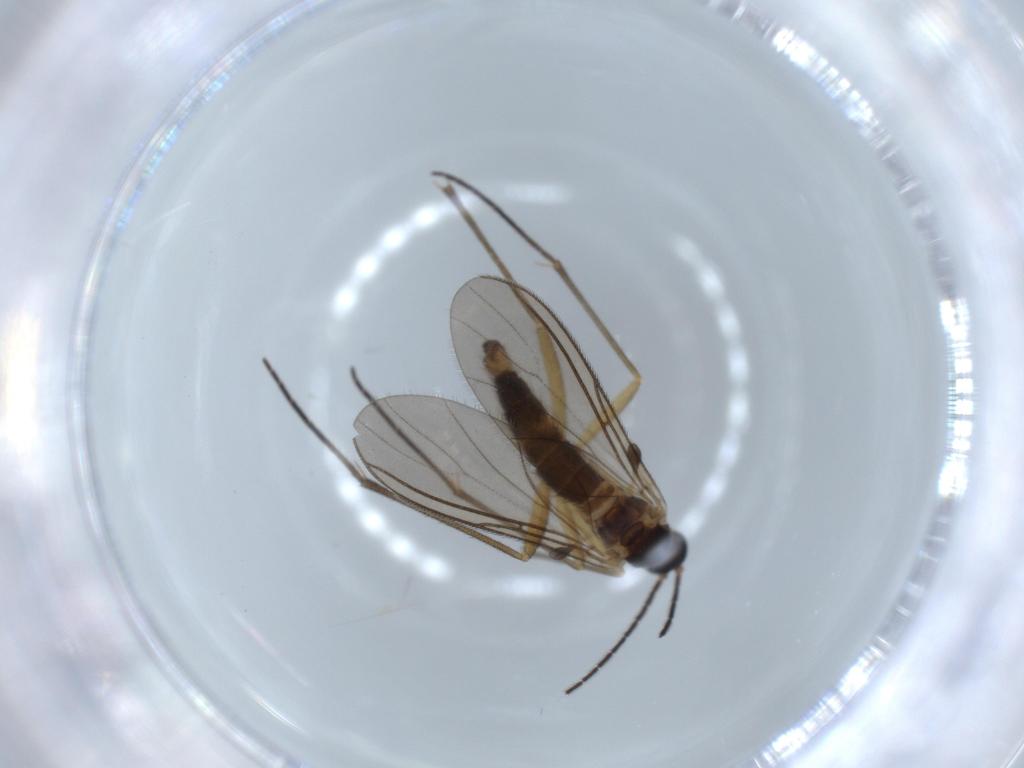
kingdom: Animalia
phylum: Arthropoda
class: Insecta
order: Diptera
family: Sciaridae
